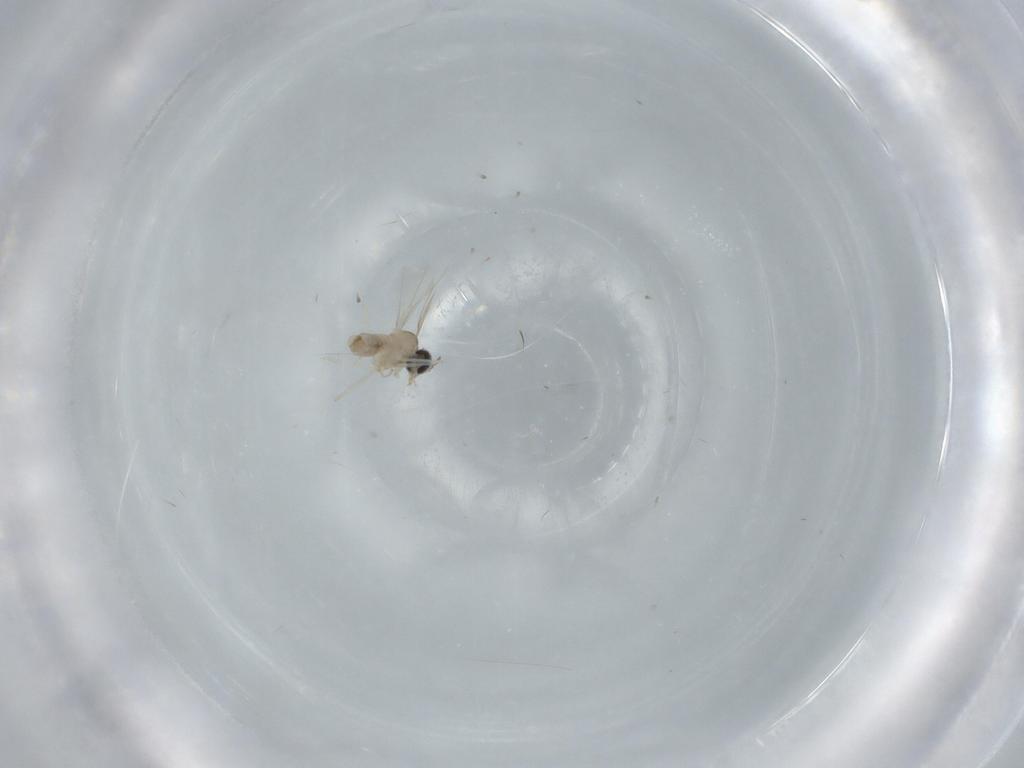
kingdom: Animalia
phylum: Arthropoda
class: Insecta
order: Diptera
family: Cecidomyiidae
